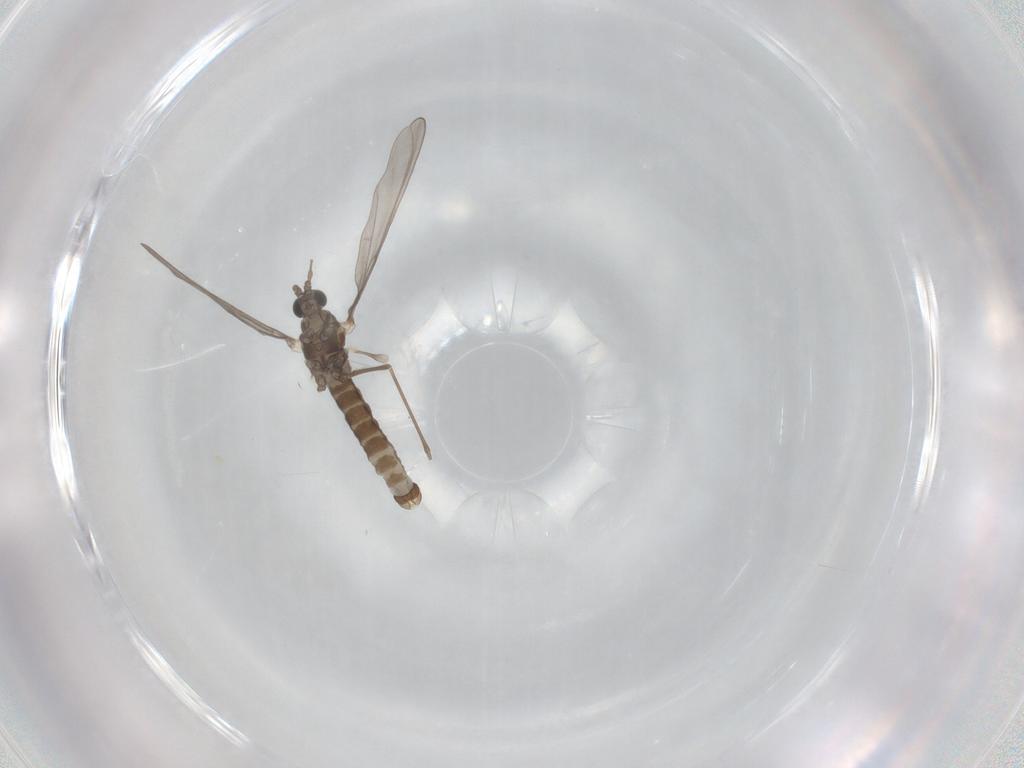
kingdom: Animalia
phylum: Arthropoda
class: Insecta
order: Diptera
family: Cecidomyiidae
